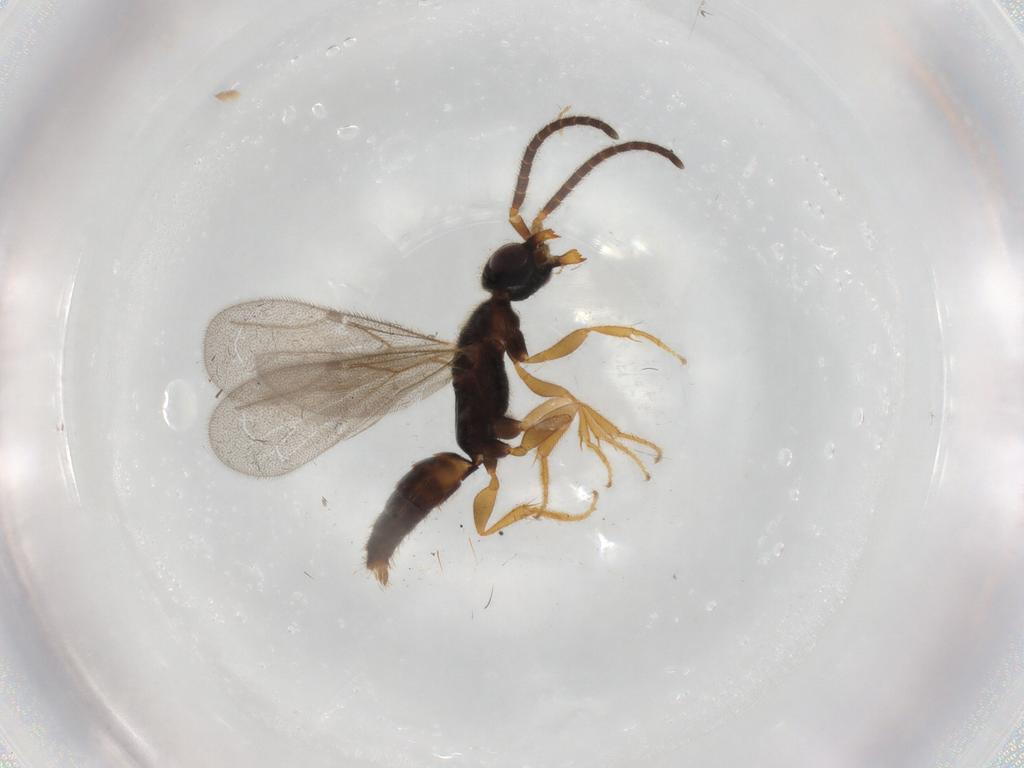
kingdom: Animalia
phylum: Arthropoda
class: Insecta
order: Hymenoptera
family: Bethylidae
